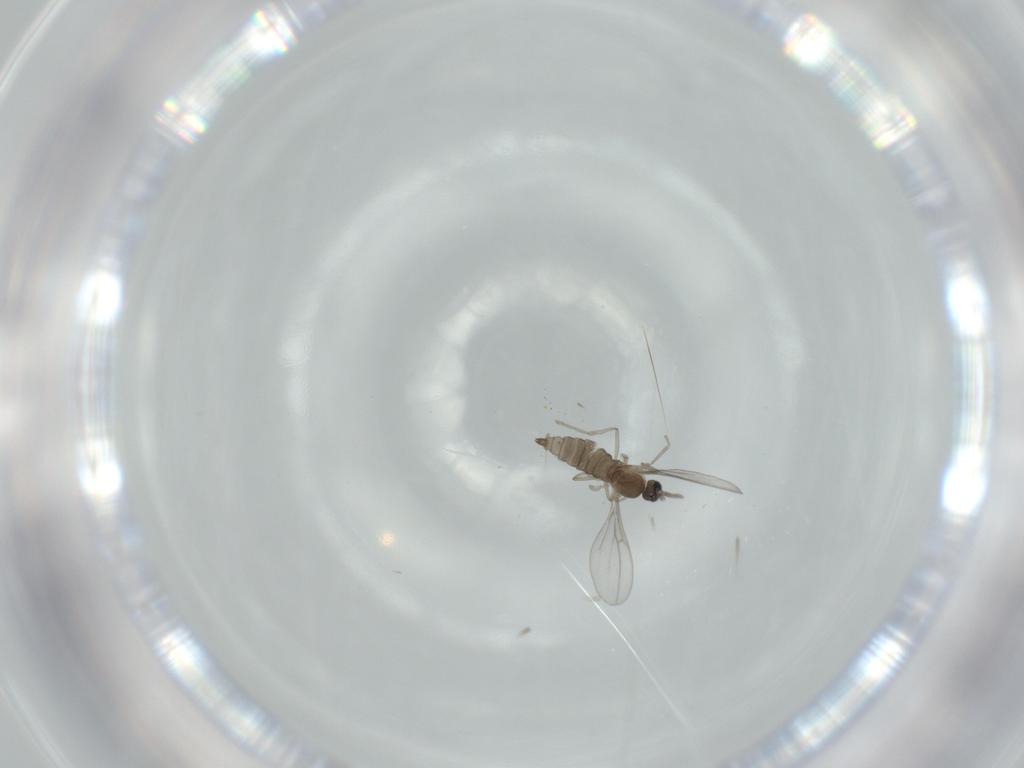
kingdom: Animalia
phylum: Arthropoda
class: Insecta
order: Diptera
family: Cecidomyiidae
